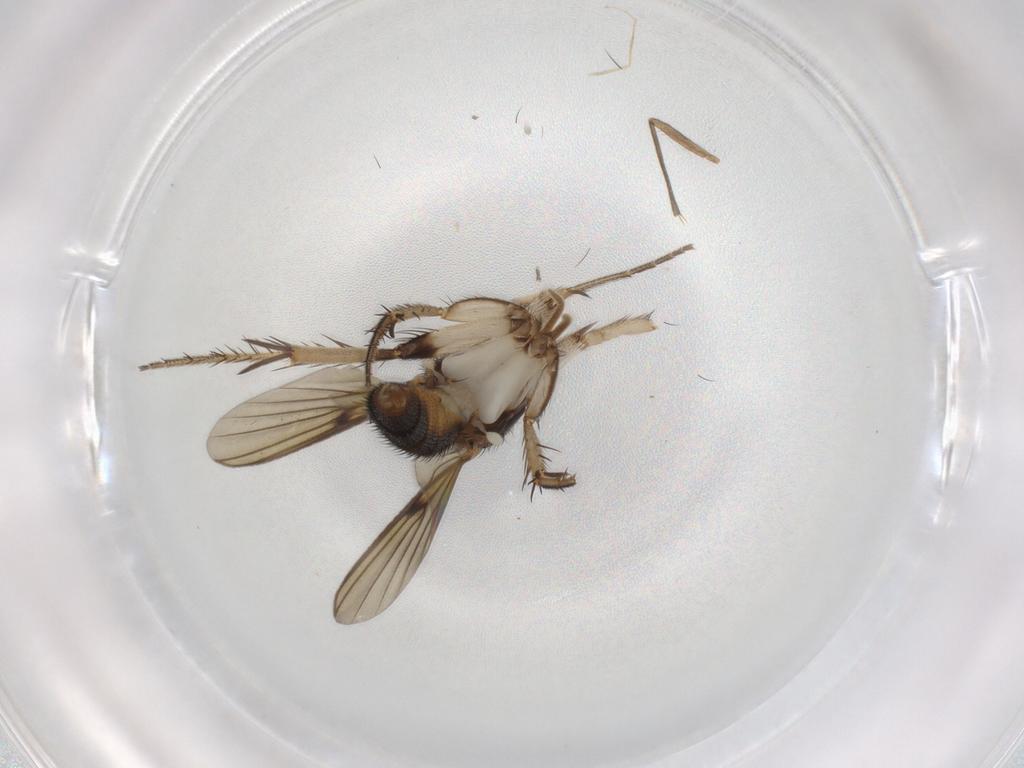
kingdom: Animalia
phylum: Arthropoda
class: Insecta
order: Diptera
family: Mycetophilidae
